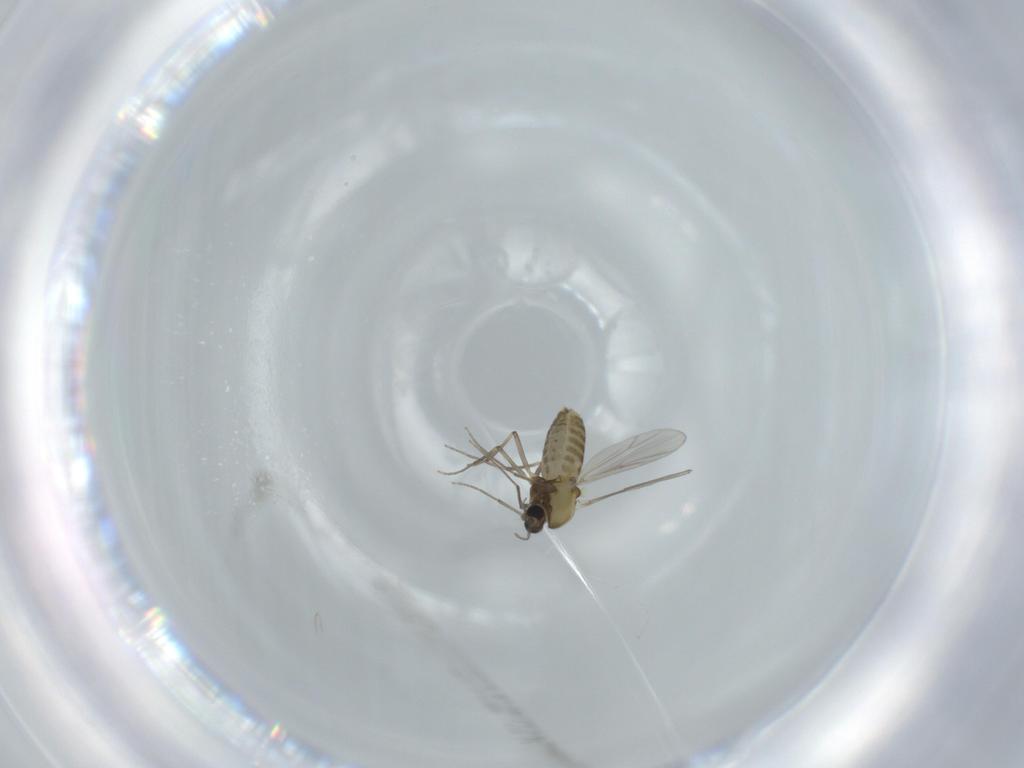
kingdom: Animalia
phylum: Arthropoda
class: Insecta
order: Diptera
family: Chironomidae
